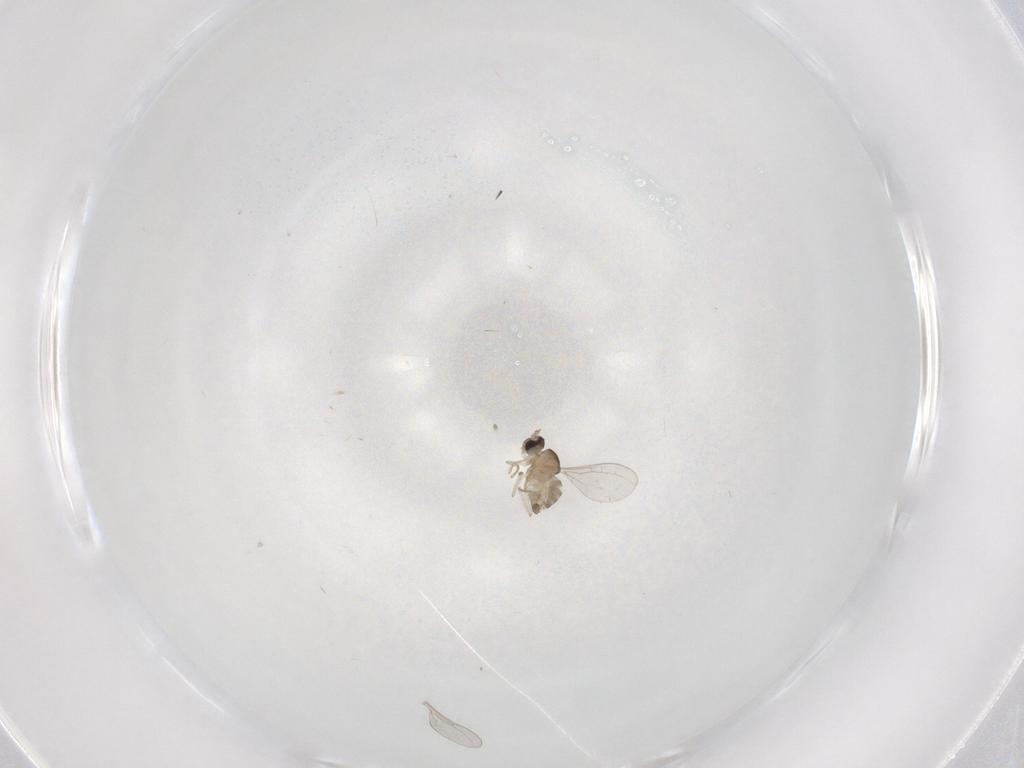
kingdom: Animalia
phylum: Arthropoda
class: Insecta
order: Diptera
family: Cecidomyiidae
